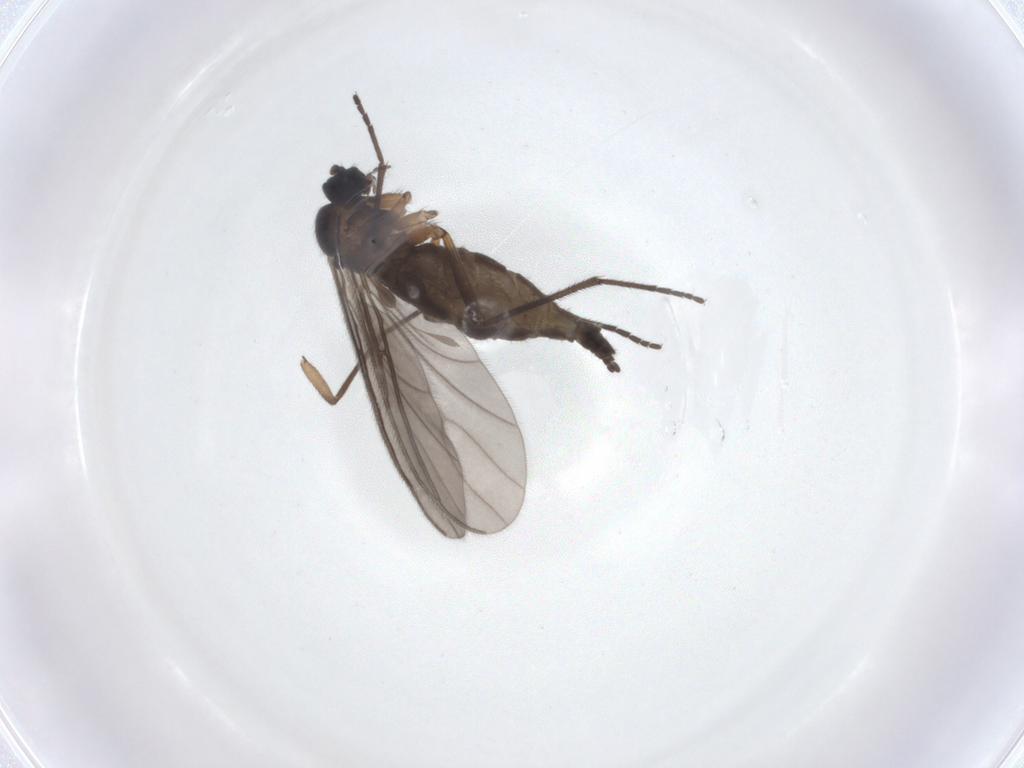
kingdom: Animalia
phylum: Arthropoda
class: Insecta
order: Diptera
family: Sciaridae
